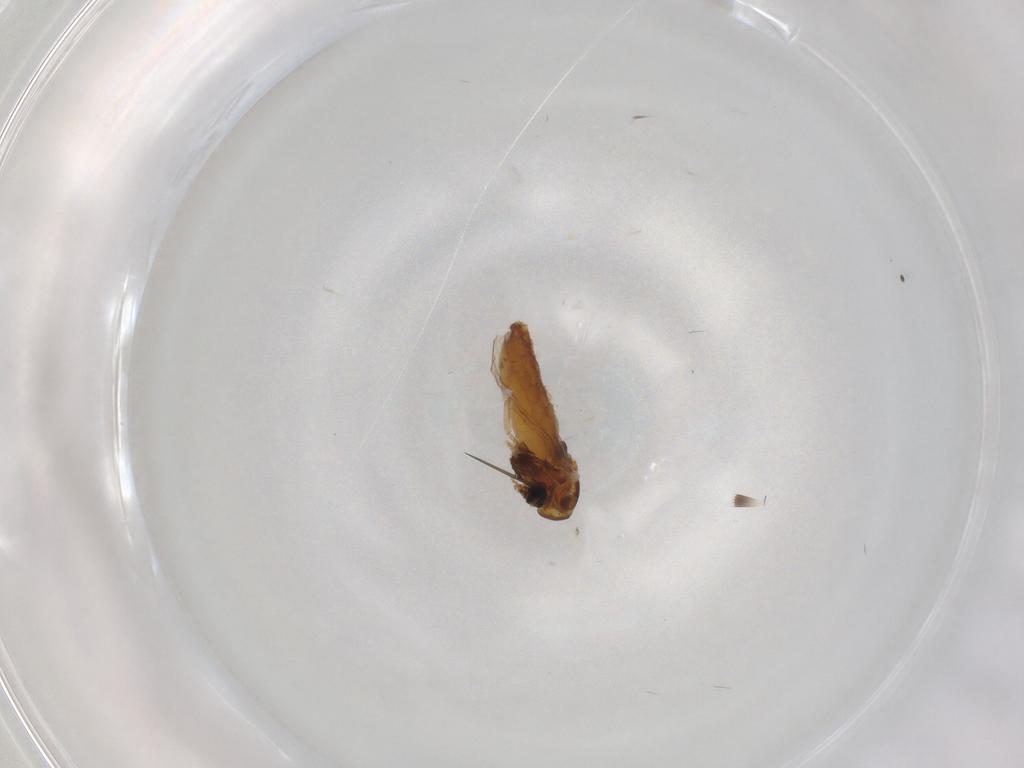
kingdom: Animalia
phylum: Arthropoda
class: Insecta
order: Diptera
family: Chironomidae
